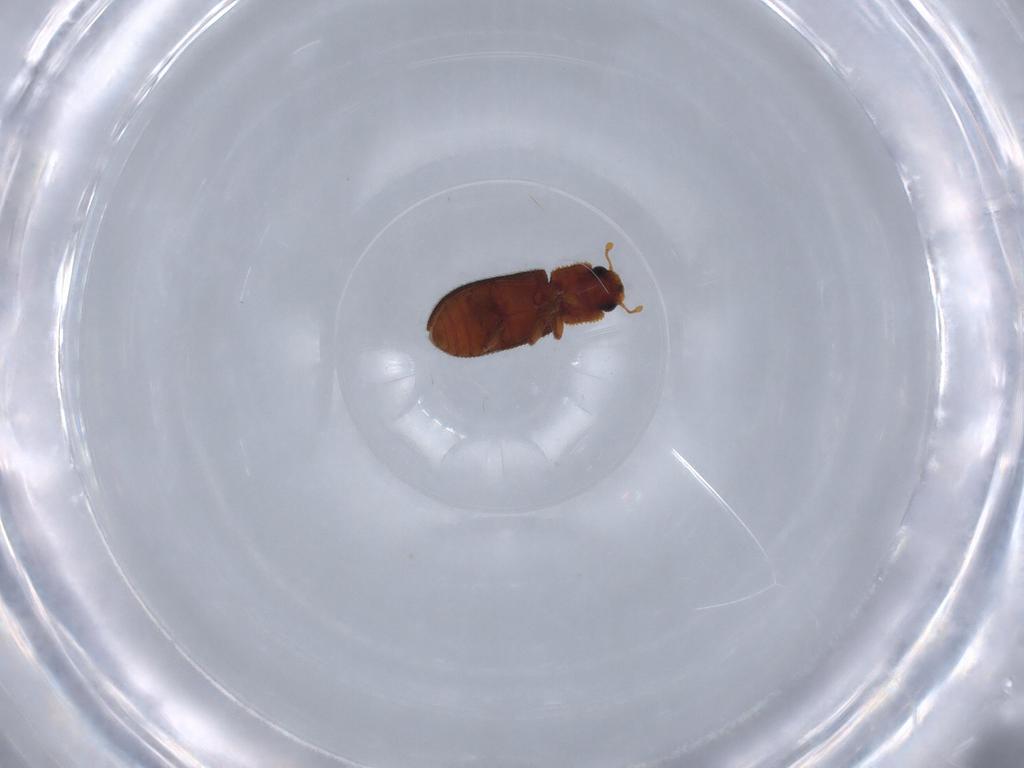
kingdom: Animalia
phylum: Arthropoda
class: Insecta
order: Coleoptera
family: Zopheridae
